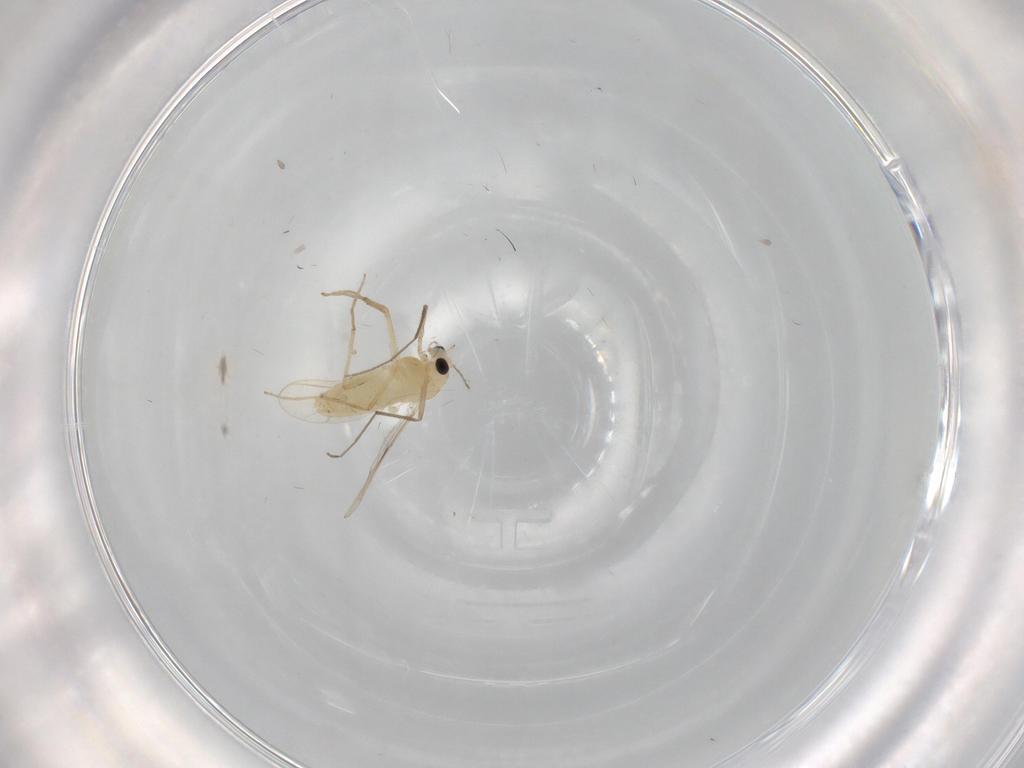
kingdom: Animalia
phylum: Arthropoda
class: Insecta
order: Diptera
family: Chironomidae
